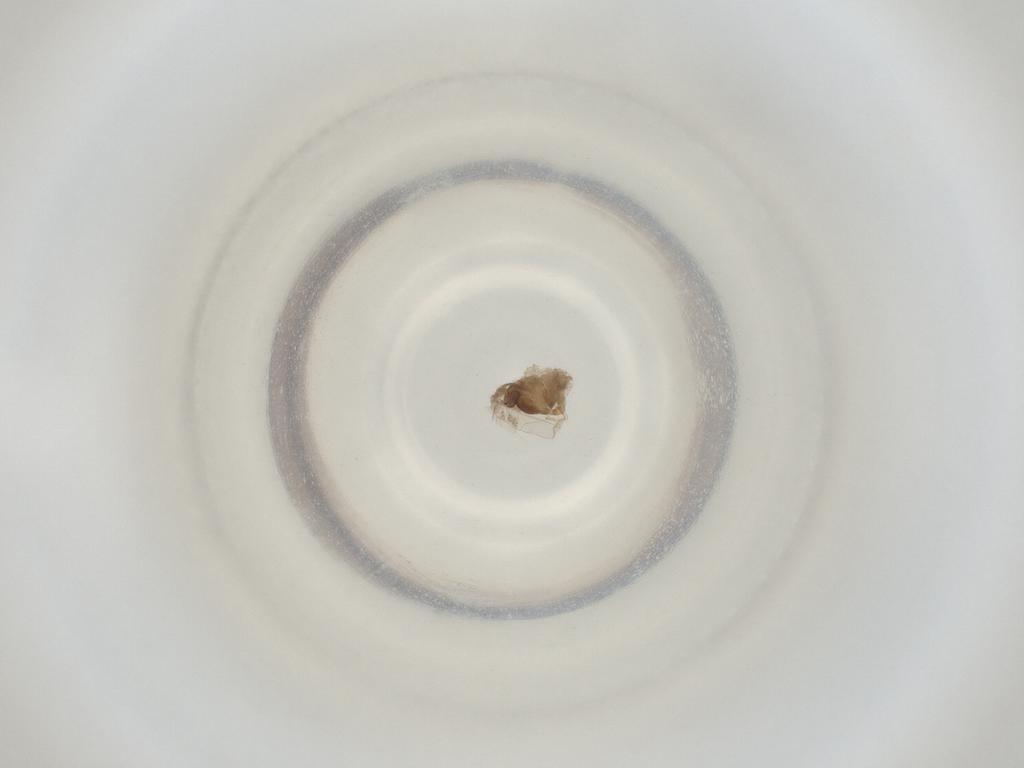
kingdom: Animalia
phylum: Arthropoda
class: Insecta
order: Diptera
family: Cecidomyiidae
